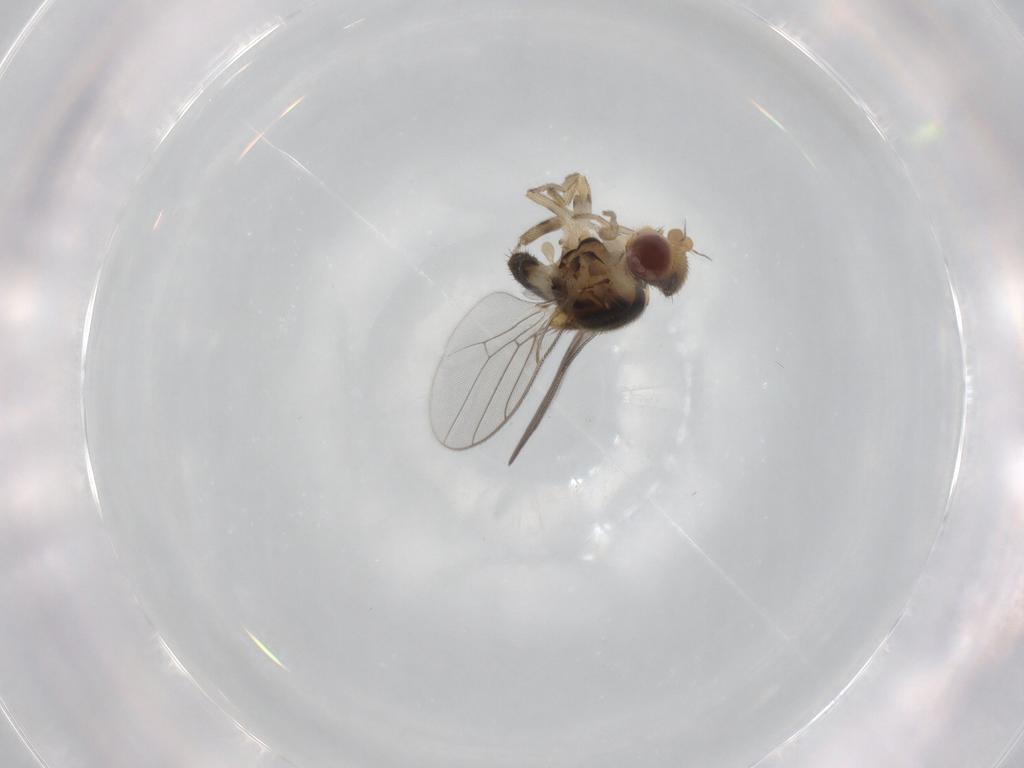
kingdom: Animalia
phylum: Arthropoda
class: Insecta
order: Diptera
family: Chloropidae
